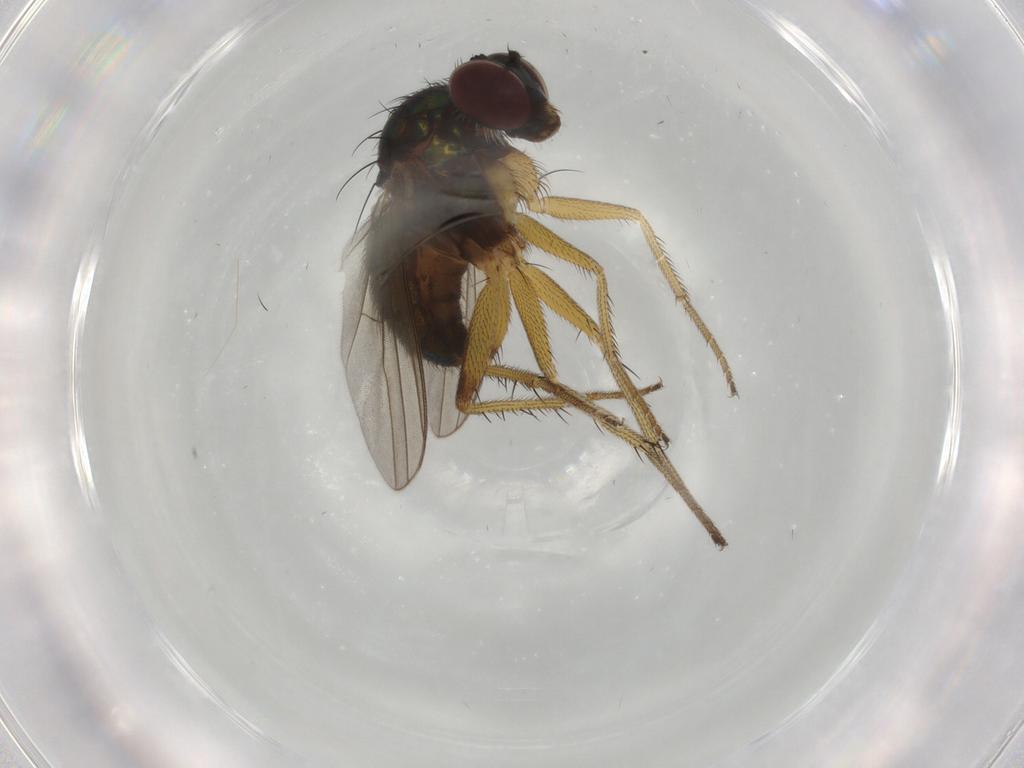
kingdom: Animalia
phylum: Arthropoda
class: Insecta
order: Diptera
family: Dolichopodidae
